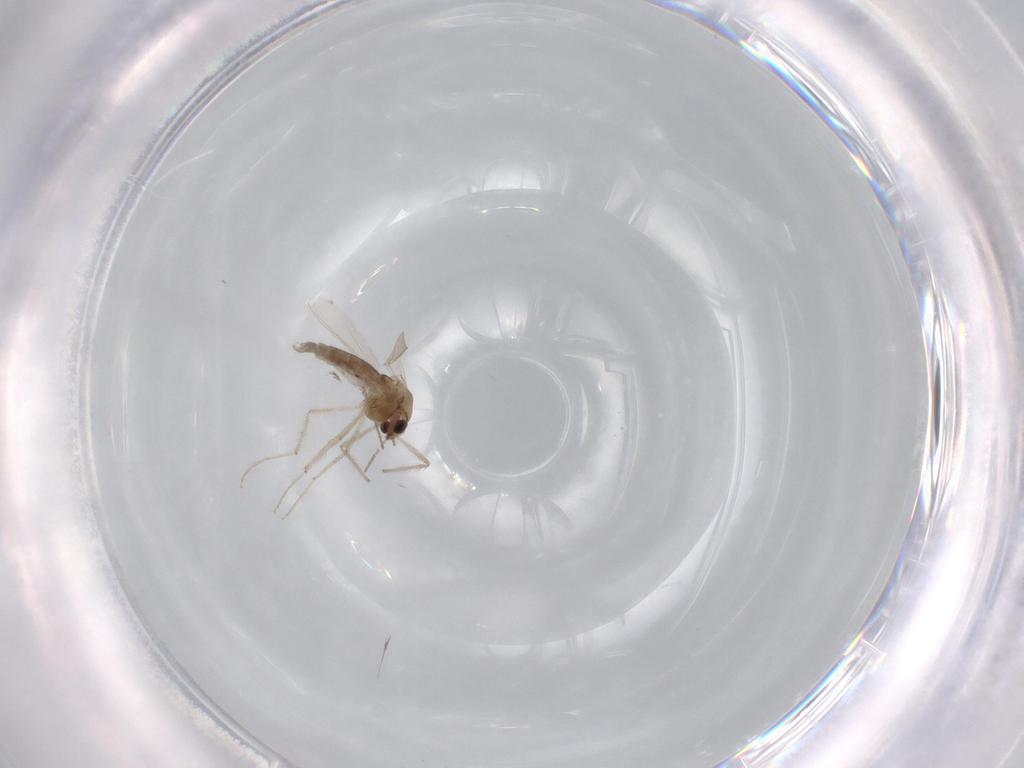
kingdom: Animalia
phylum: Arthropoda
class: Insecta
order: Diptera
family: Chironomidae
